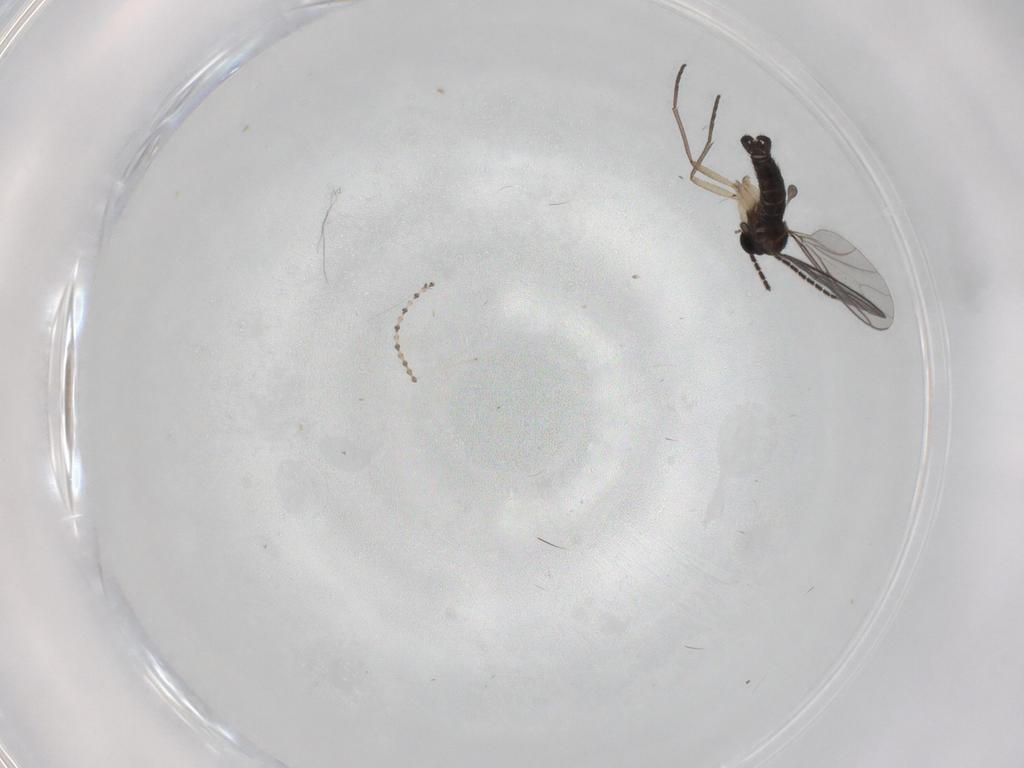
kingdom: Animalia
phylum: Arthropoda
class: Insecta
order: Diptera
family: Sciaridae
